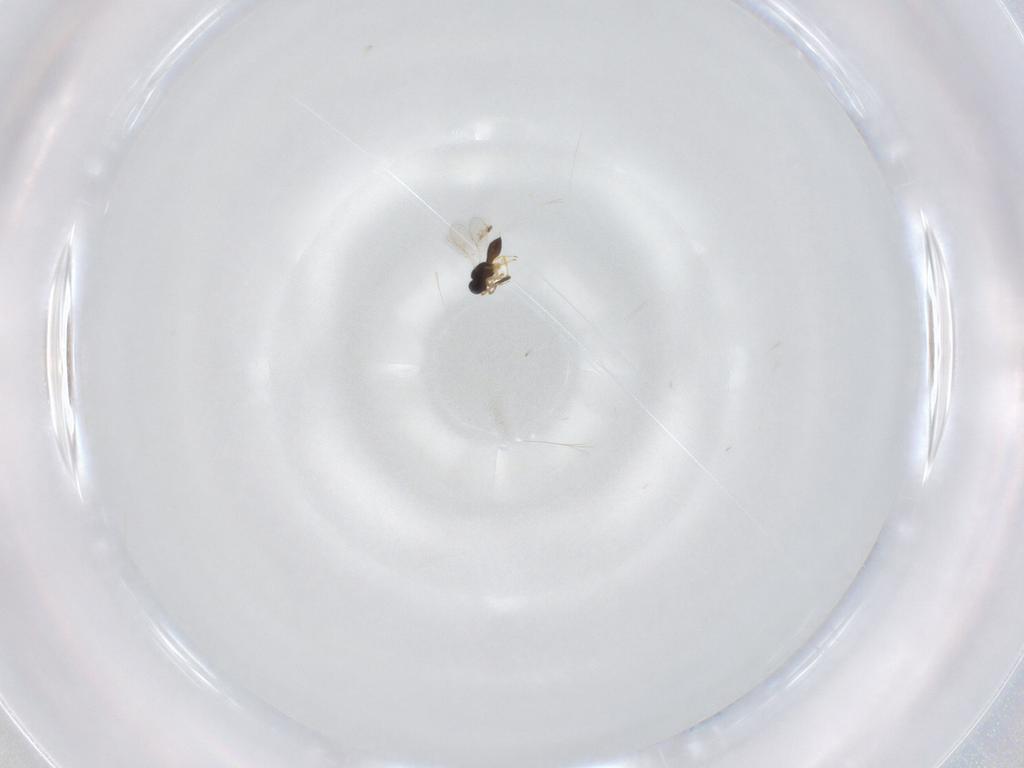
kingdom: Animalia
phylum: Arthropoda
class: Insecta
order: Hymenoptera
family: Scelionidae
